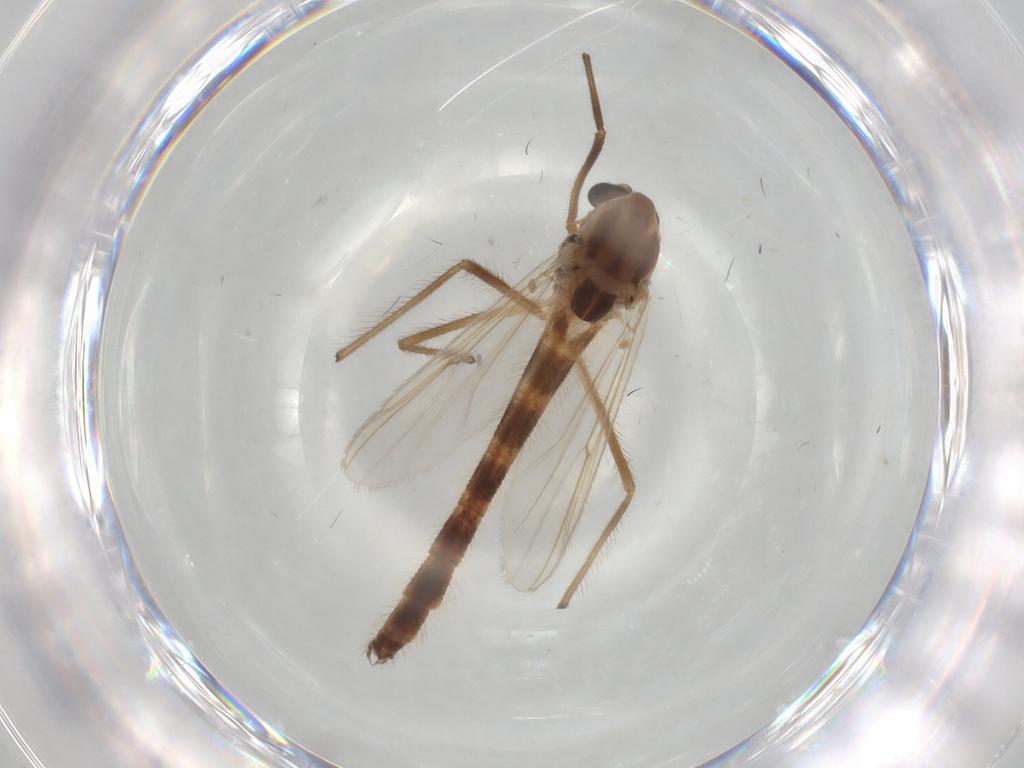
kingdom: Animalia
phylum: Arthropoda
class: Insecta
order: Diptera
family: Chironomidae
